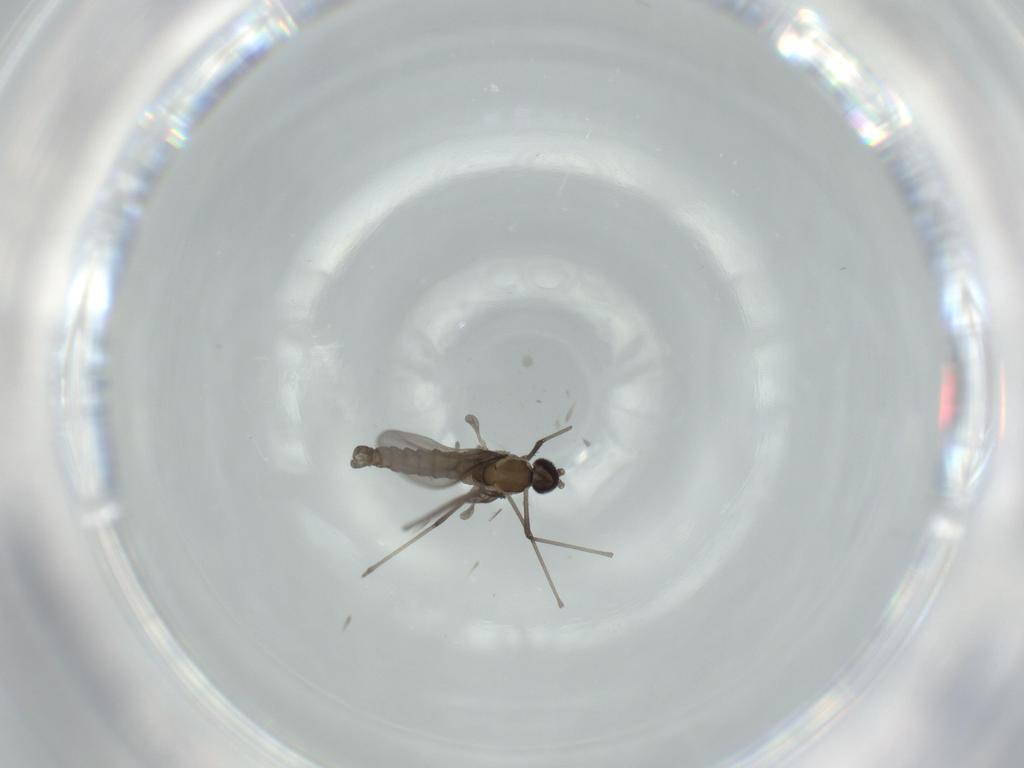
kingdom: Animalia
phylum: Arthropoda
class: Insecta
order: Diptera
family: Cecidomyiidae
